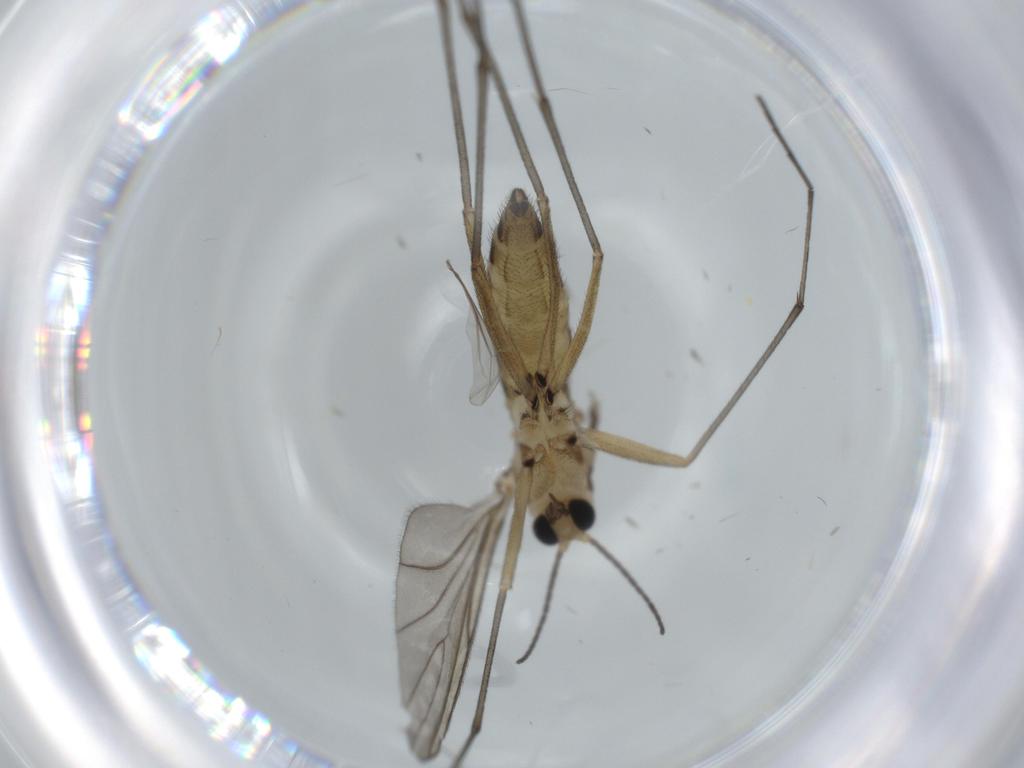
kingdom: Animalia
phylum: Arthropoda
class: Insecta
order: Diptera
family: Sciaridae
